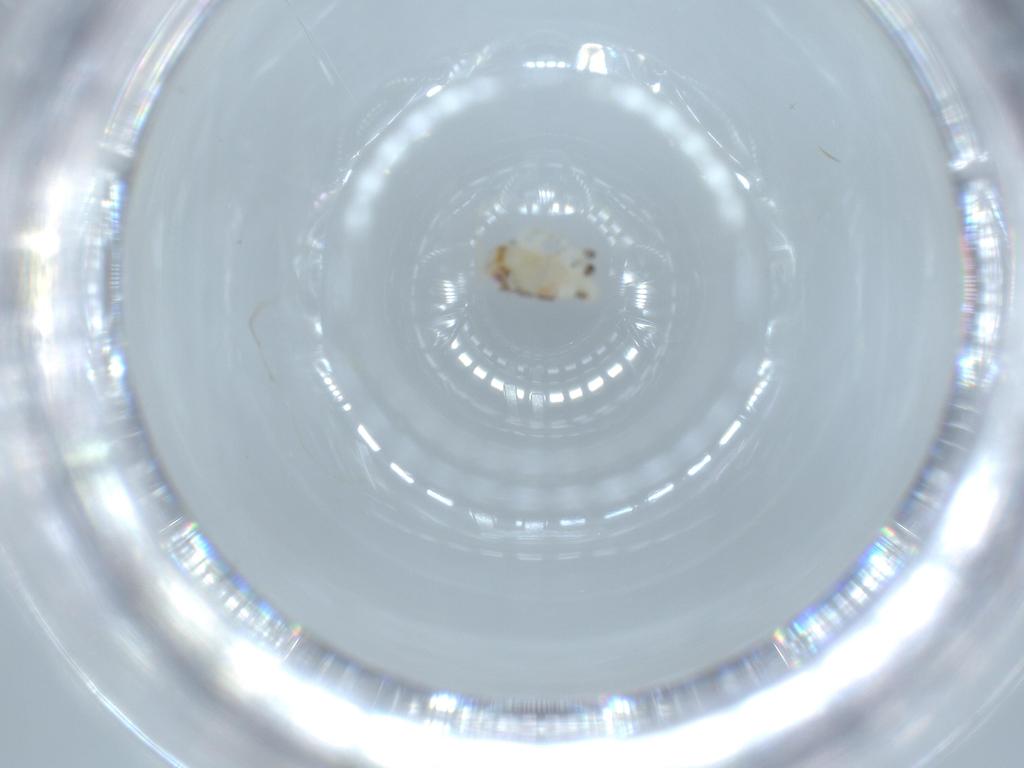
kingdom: Animalia
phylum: Arthropoda
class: Insecta
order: Hemiptera
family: Nogodinidae
